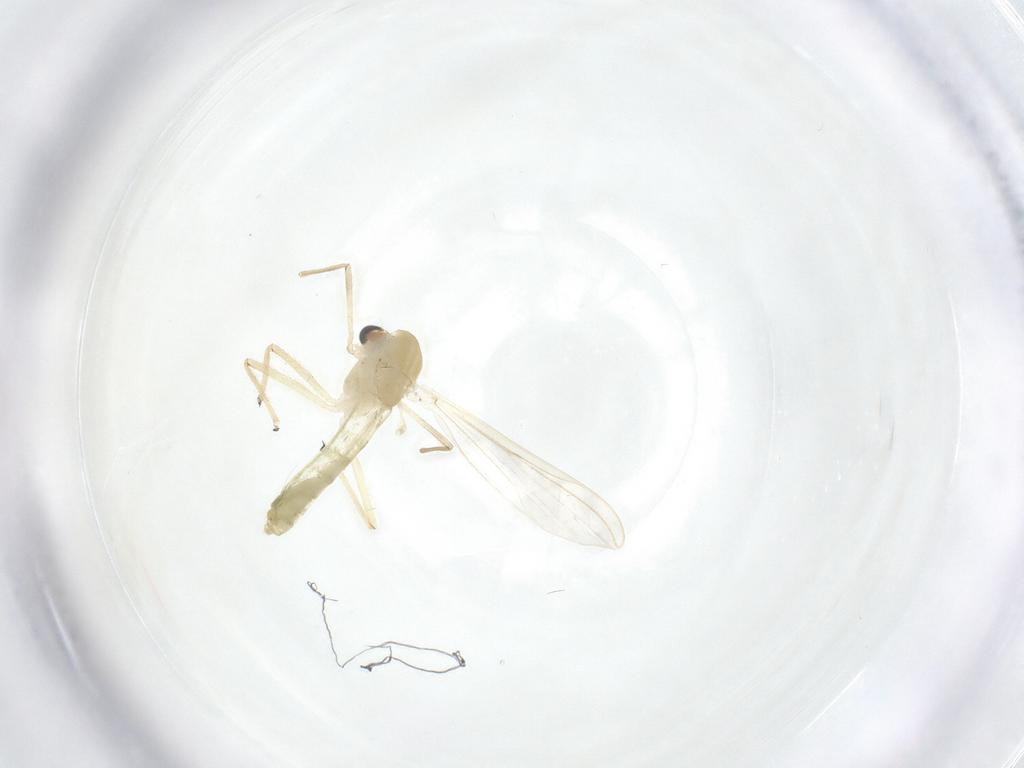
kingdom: Animalia
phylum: Arthropoda
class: Insecta
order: Diptera
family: Chironomidae
